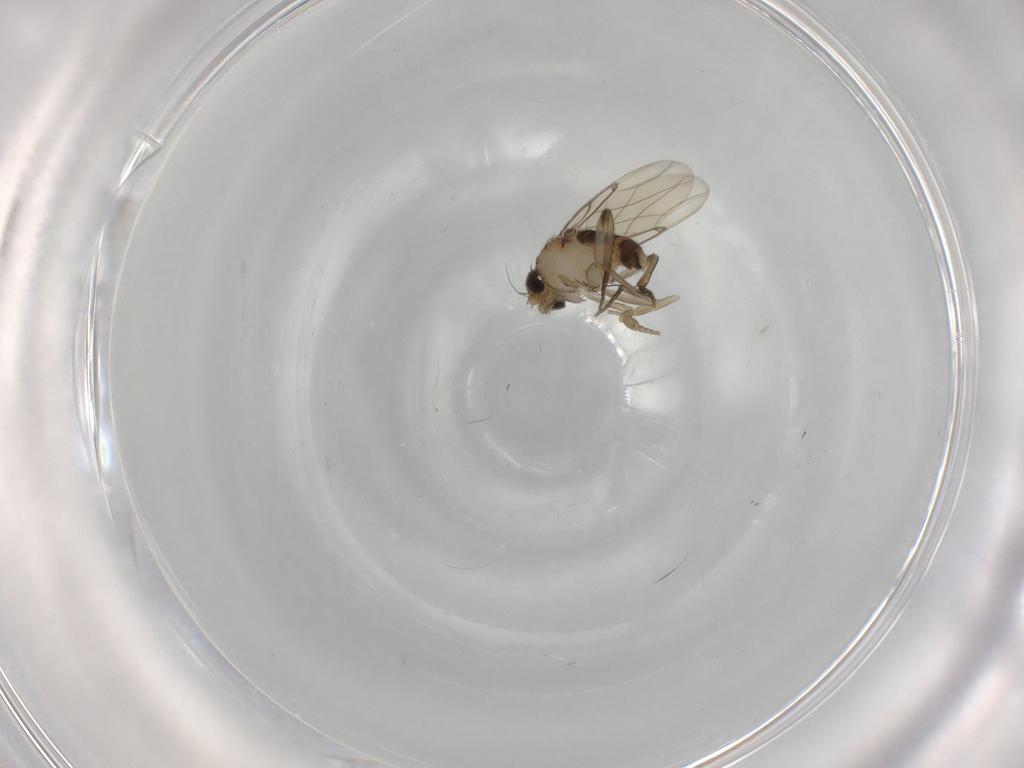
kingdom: Animalia
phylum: Arthropoda
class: Insecta
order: Diptera
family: Phoridae
